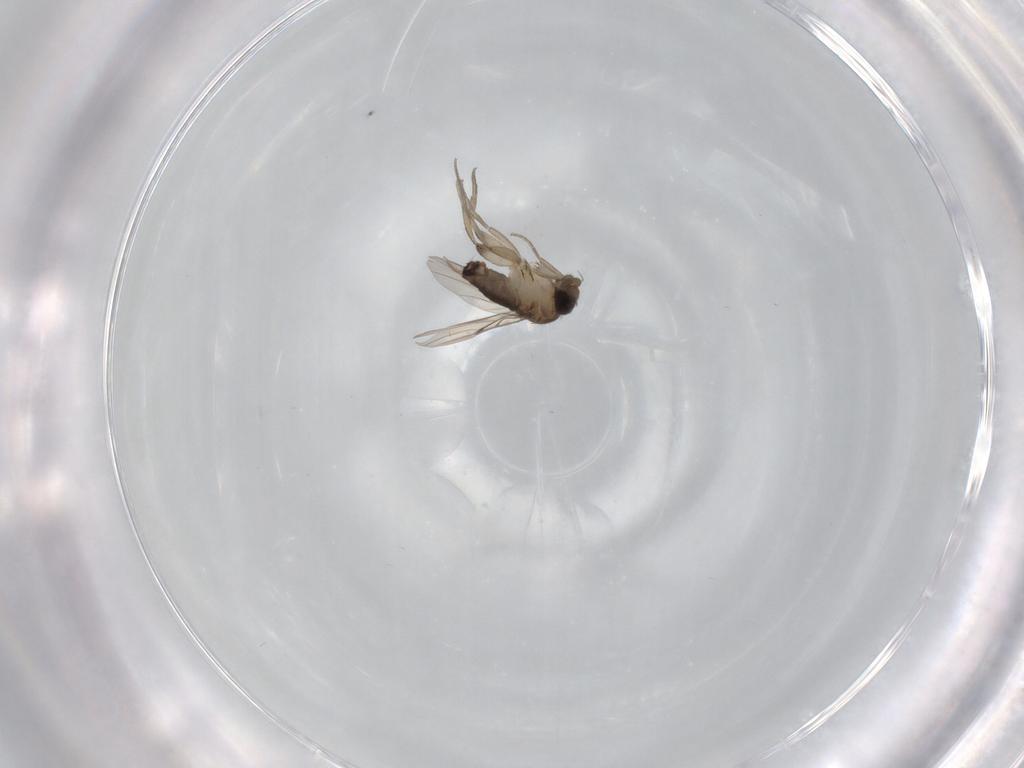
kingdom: Animalia
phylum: Arthropoda
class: Insecta
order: Diptera
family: Phoridae
